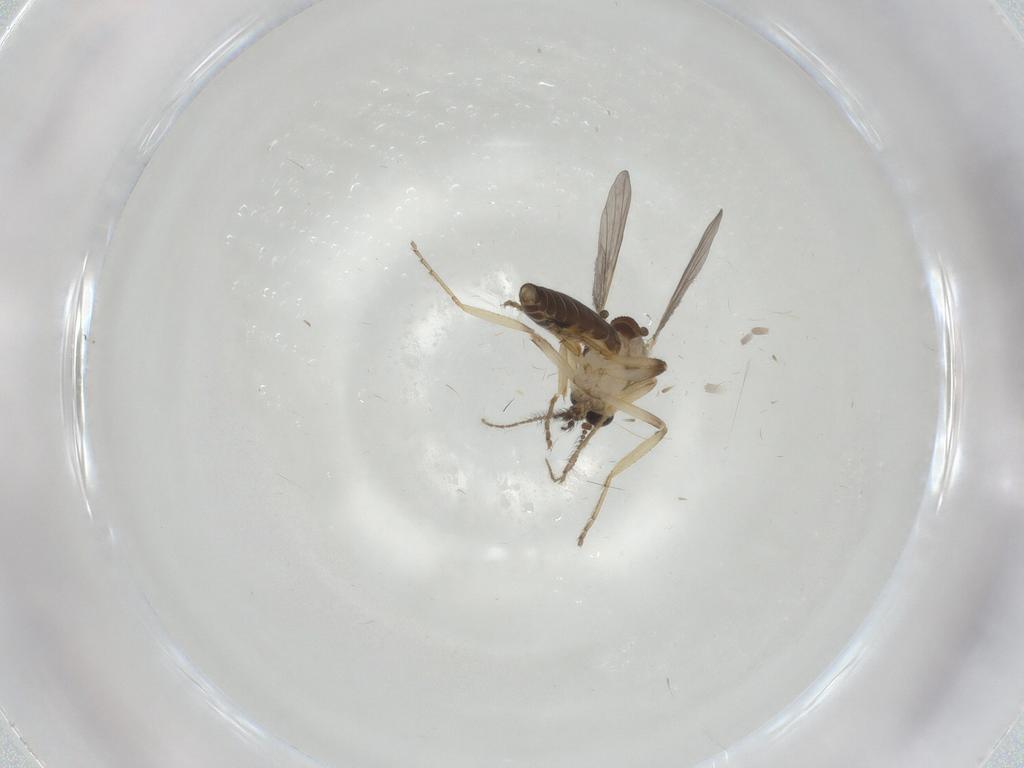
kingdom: Animalia
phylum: Arthropoda
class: Insecta
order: Diptera
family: Ceratopogonidae
